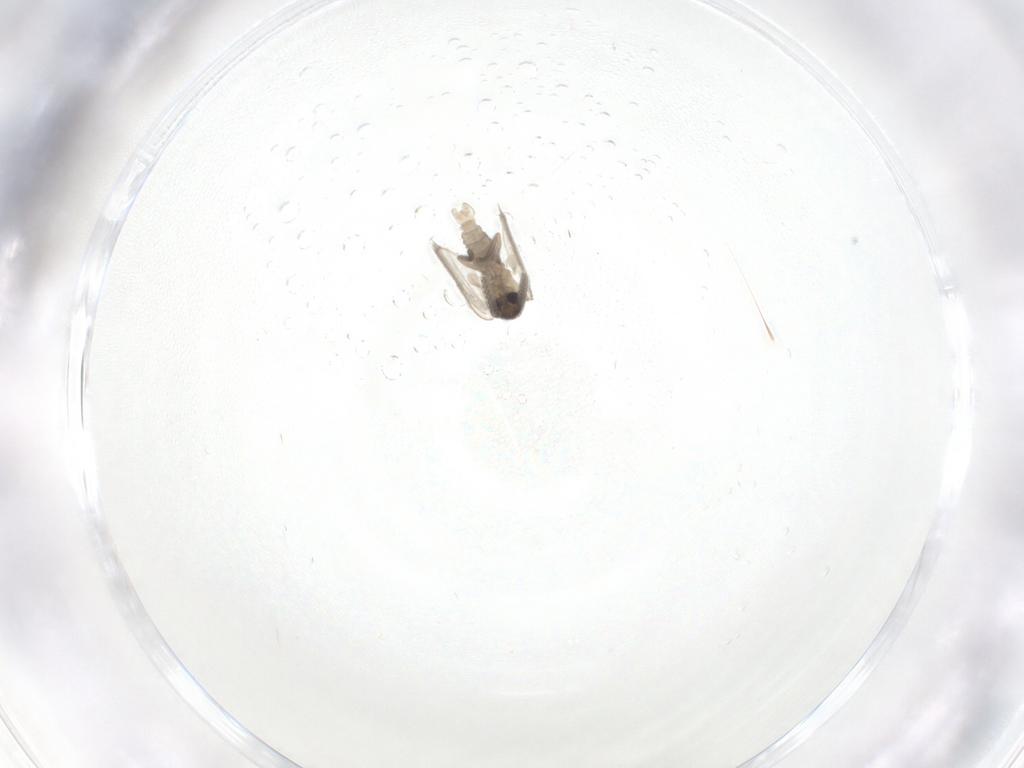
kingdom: Animalia
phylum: Arthropoda
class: Insecta
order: Diptera
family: Psychodidae
